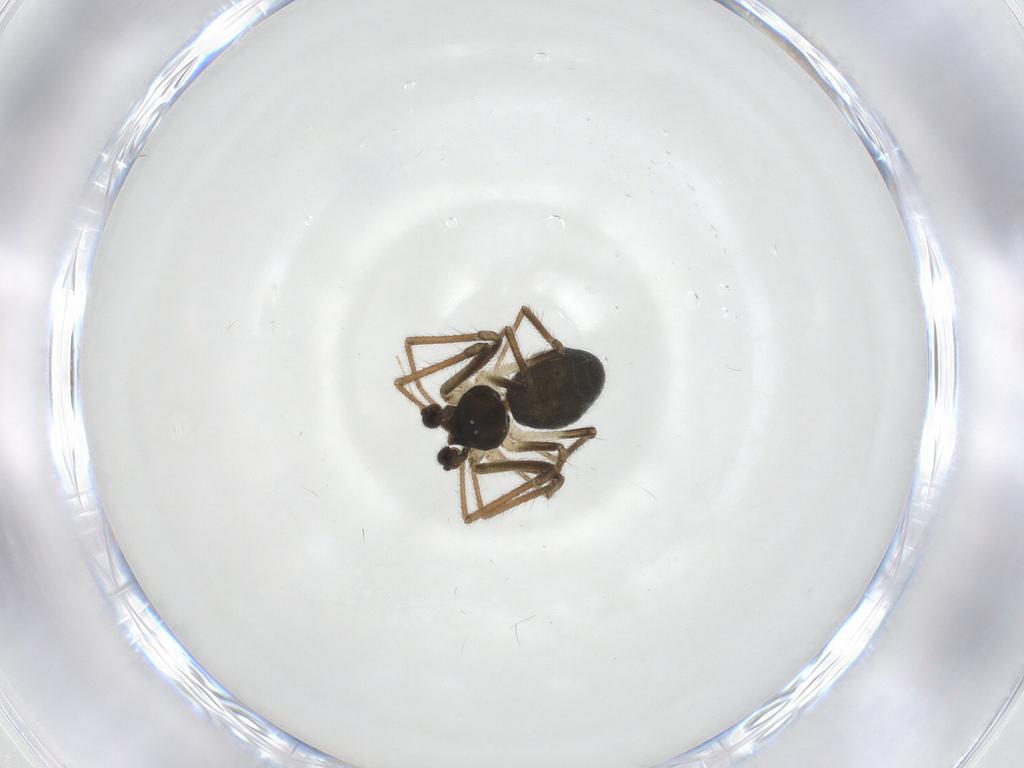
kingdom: Animalia
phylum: Arthropoda
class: Arachnida
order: Araneae
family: Linyphiidae
